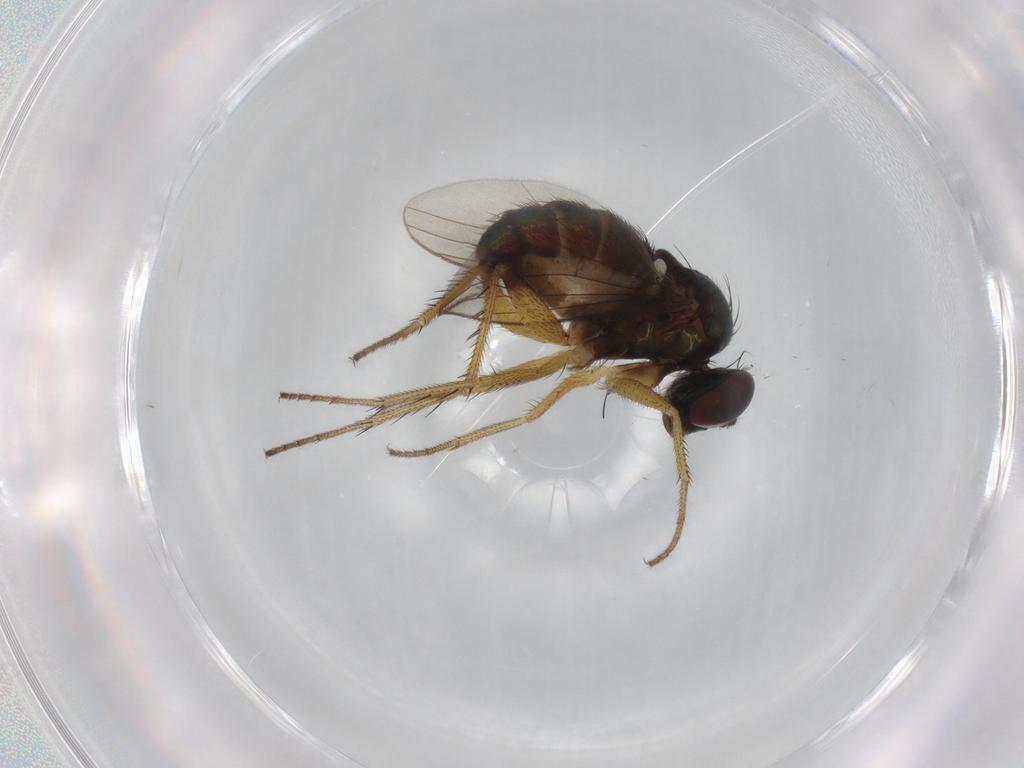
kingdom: Animalia
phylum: Arthropoda
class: Insecta
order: Diptera
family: Dolichopodidae
